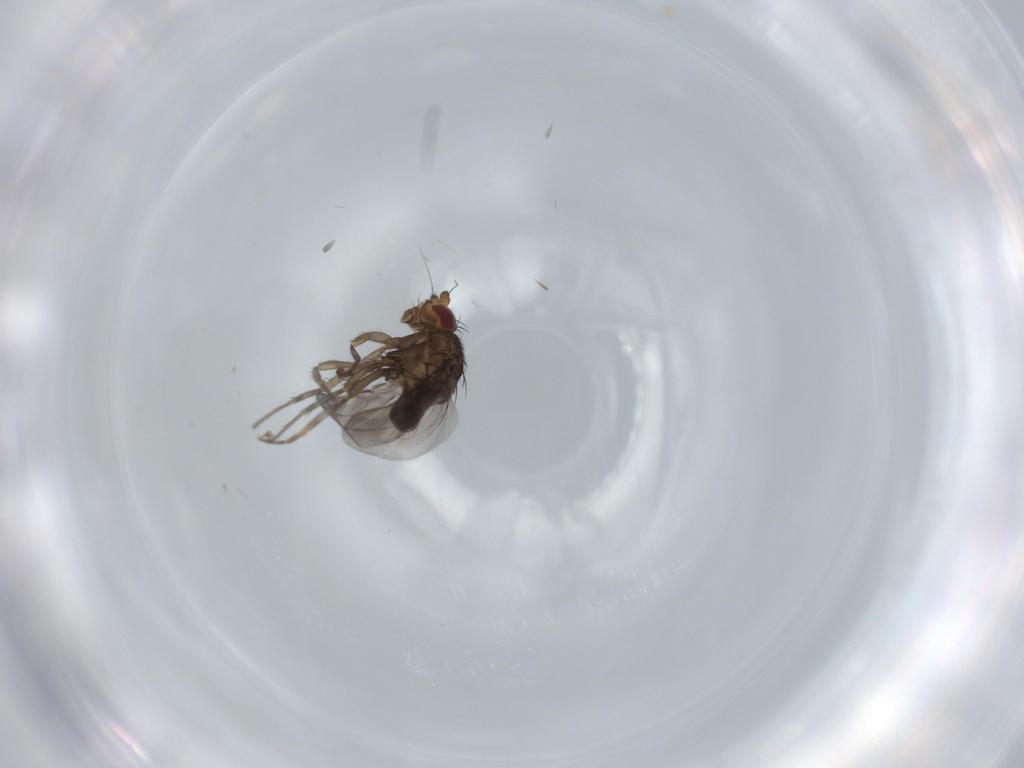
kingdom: Animalia
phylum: Arthropoda
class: Insecta
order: Diptera
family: Sphaeroceridae
